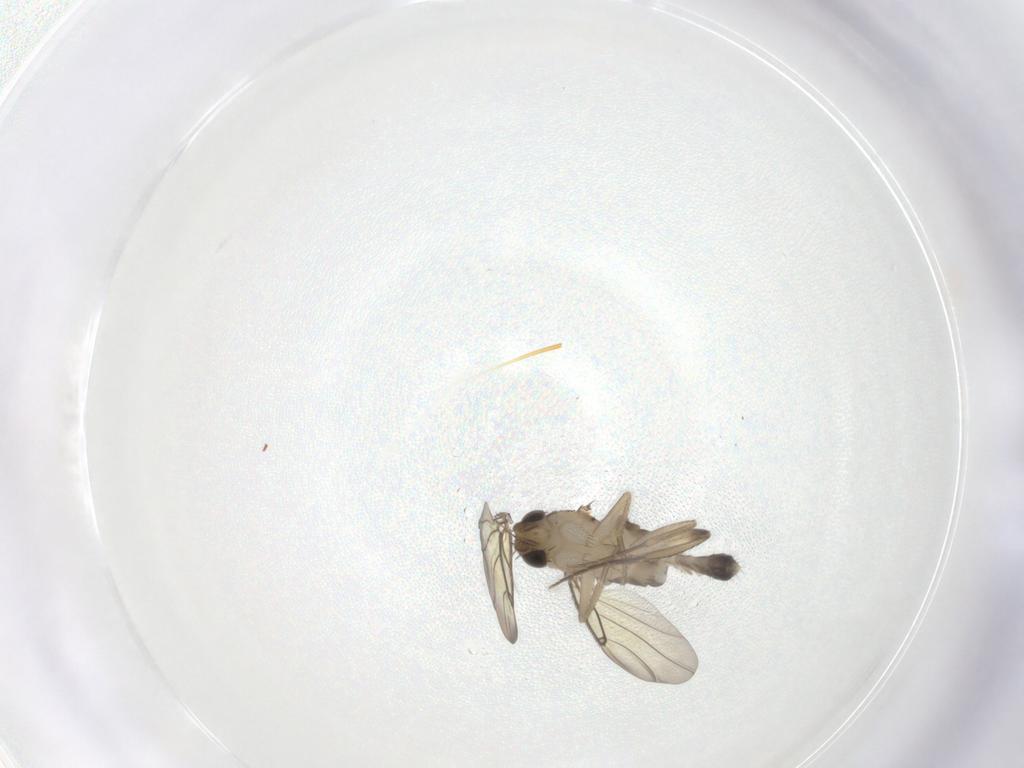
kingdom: Animalia
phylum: Arthropoda
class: Insecta
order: Diptera
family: Phoridae
